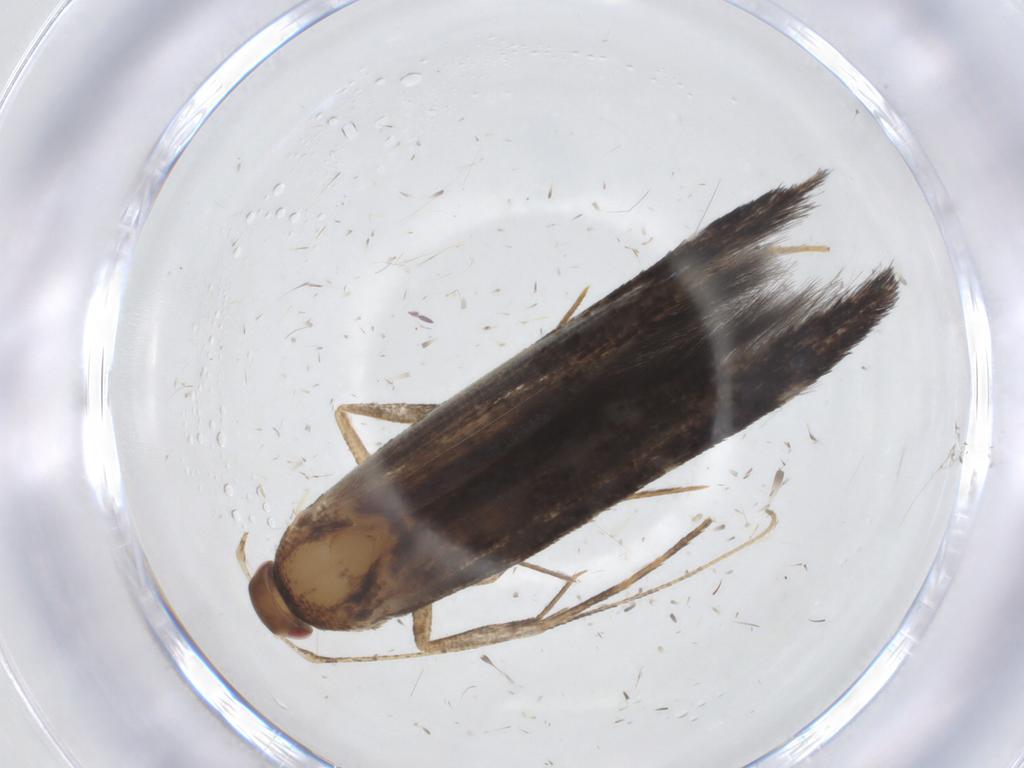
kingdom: Animalia
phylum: Arthropoda
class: Insecta
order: Lepidoptera
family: Cosmopterigidae
